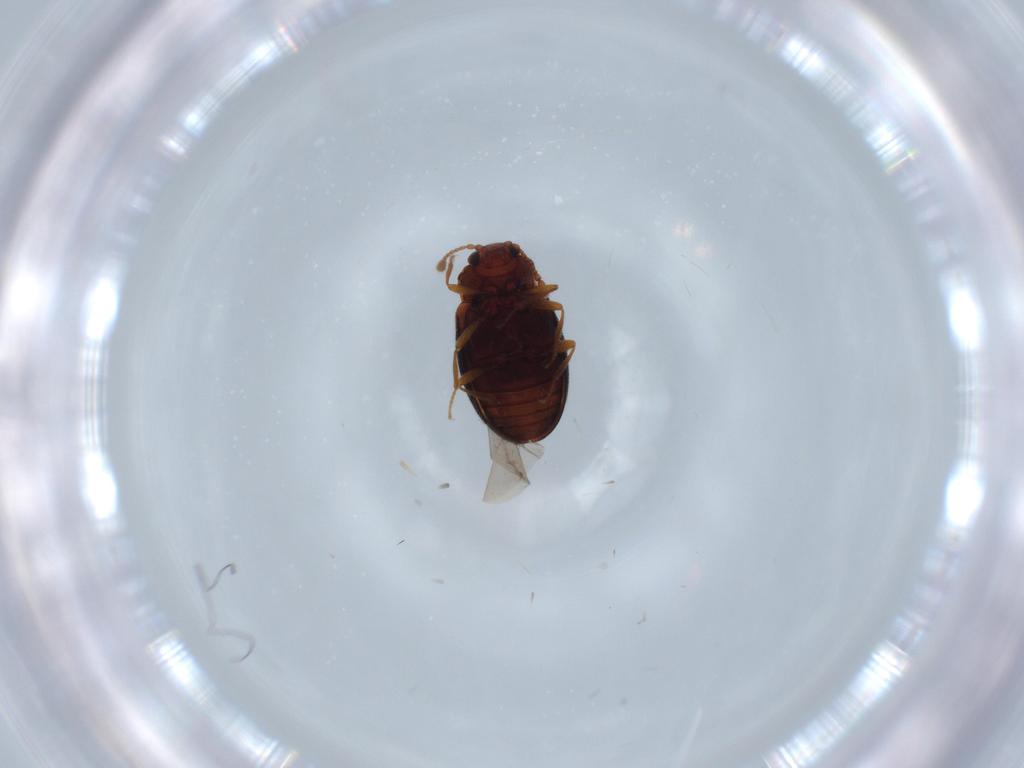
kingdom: Animalia
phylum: Arthropoda
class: Insecta
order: Coleoptera
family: Cryptophagidae
